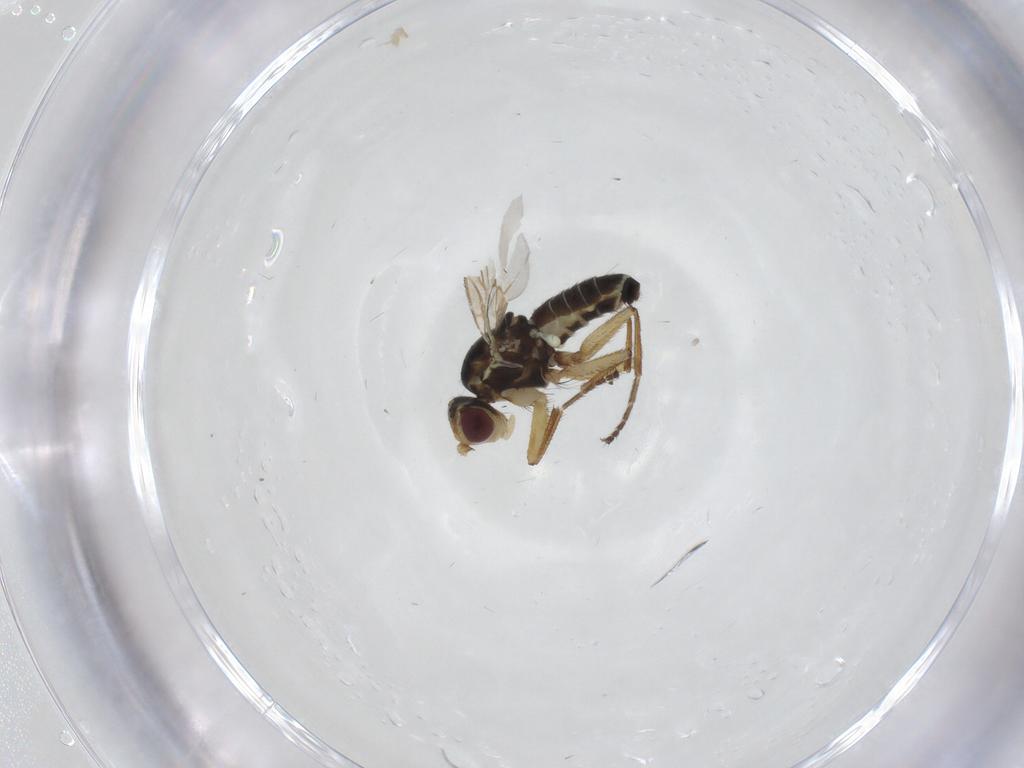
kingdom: Animalia
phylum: Arthropoda
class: Insecta
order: Diptera
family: Agromyzidae
